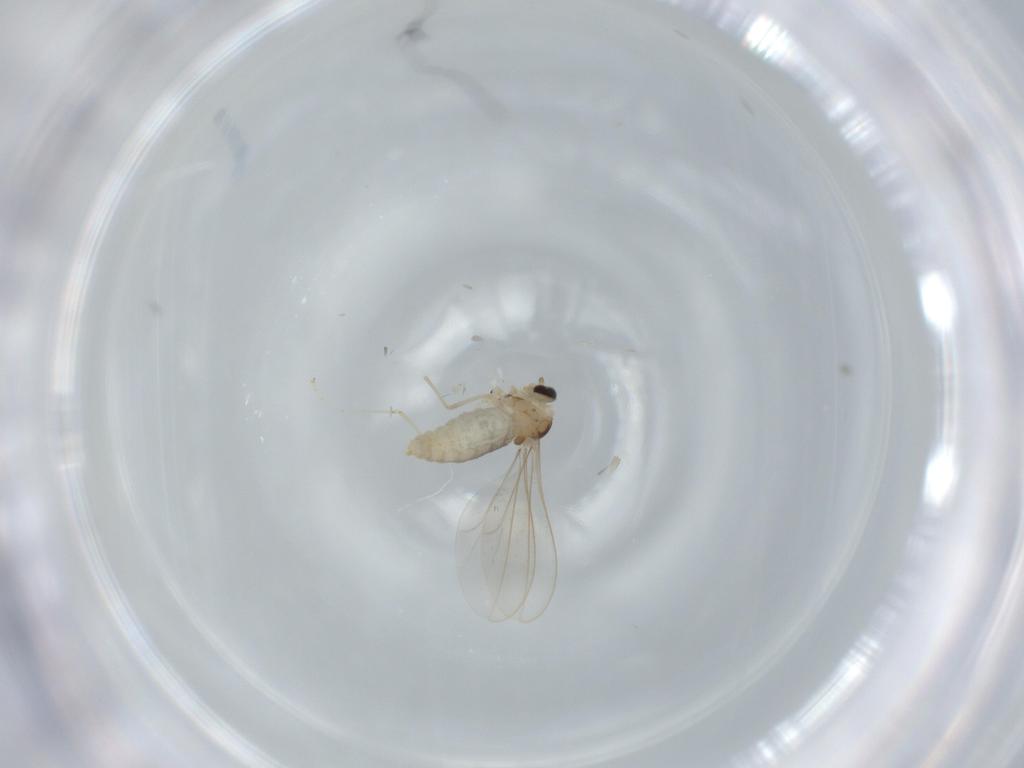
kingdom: Animalia
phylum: Arthropoda
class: Insecta
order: Diptera
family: Cecidomyiidae
